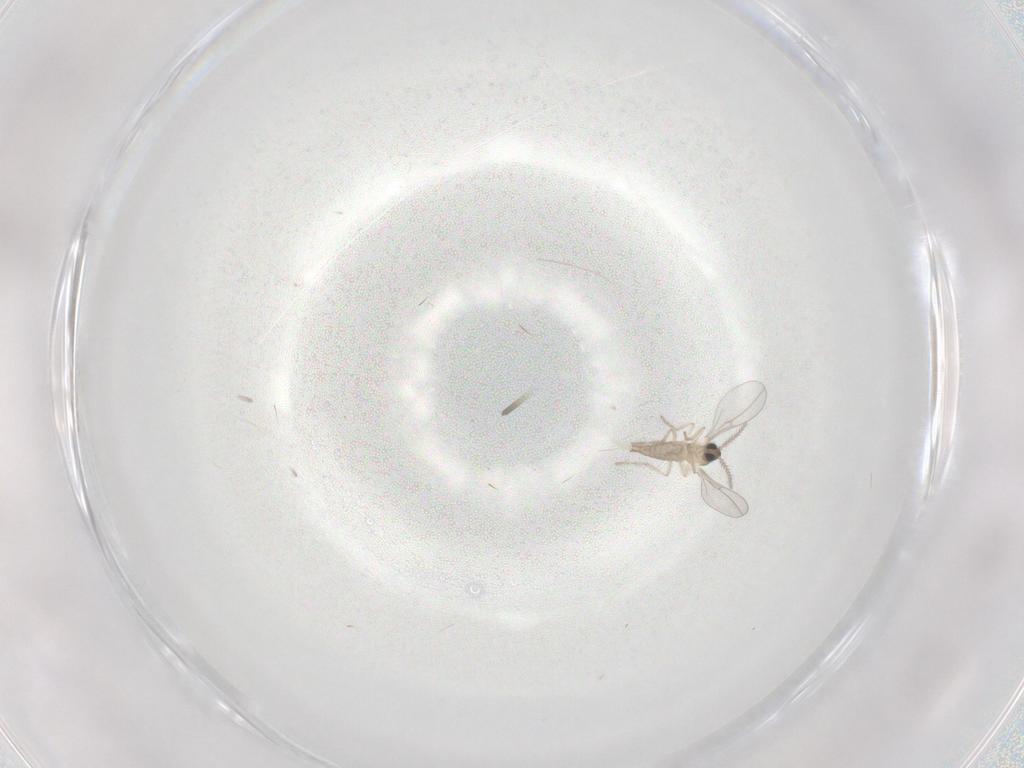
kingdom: Animalia
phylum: Arthropoda
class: Insecta
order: Diptera
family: Cecidomyiidae
